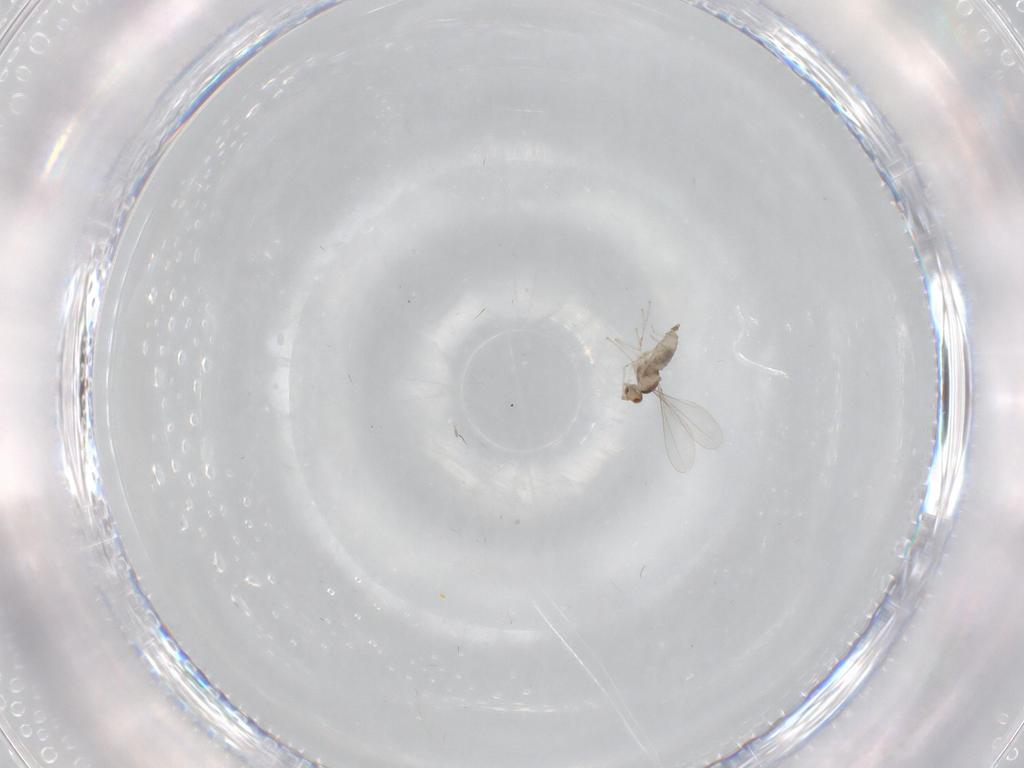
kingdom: Animalia
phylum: Arthropoda
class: Insecta
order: Diptera
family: Cecidomyiidae
